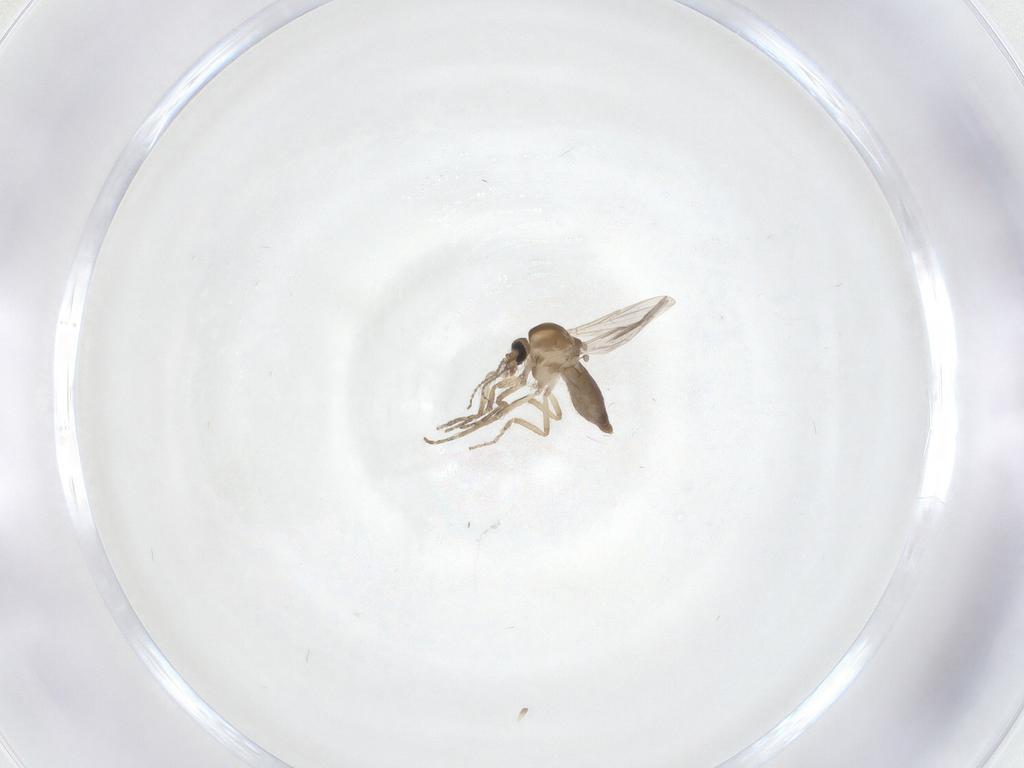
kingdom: Animalia
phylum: Arthropoda
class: Insecta
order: Diptera
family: Ceratopogonidae
